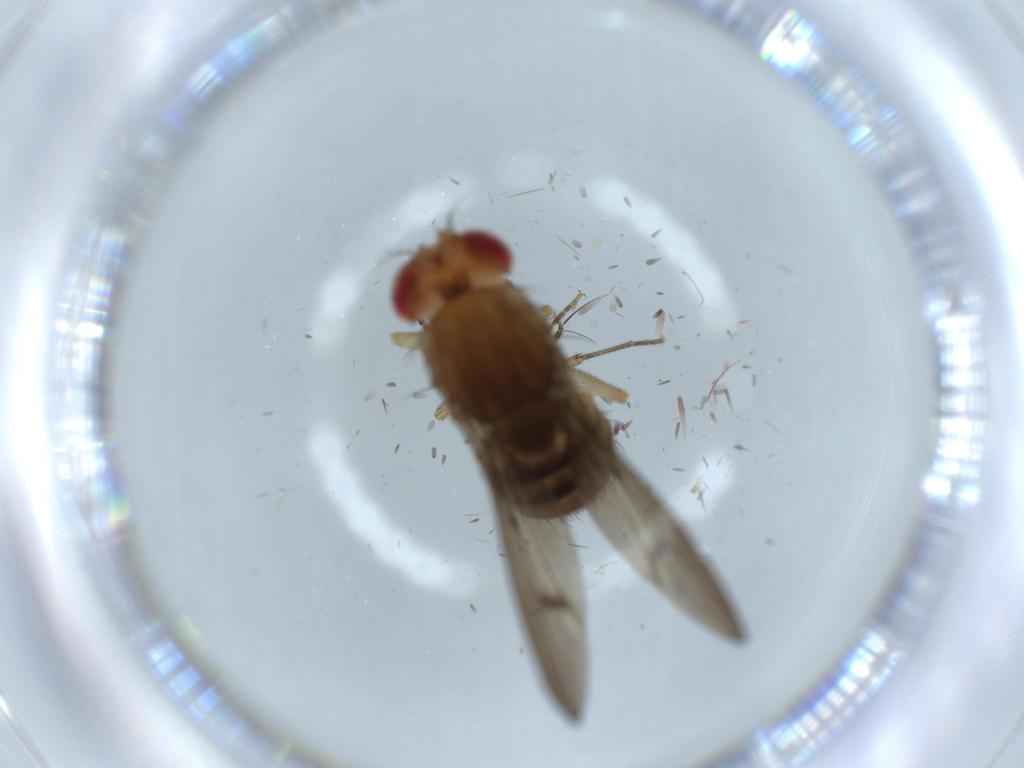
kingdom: Animalia
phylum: Arthropoda
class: Insecta
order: Diptera
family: Drosophilidae
